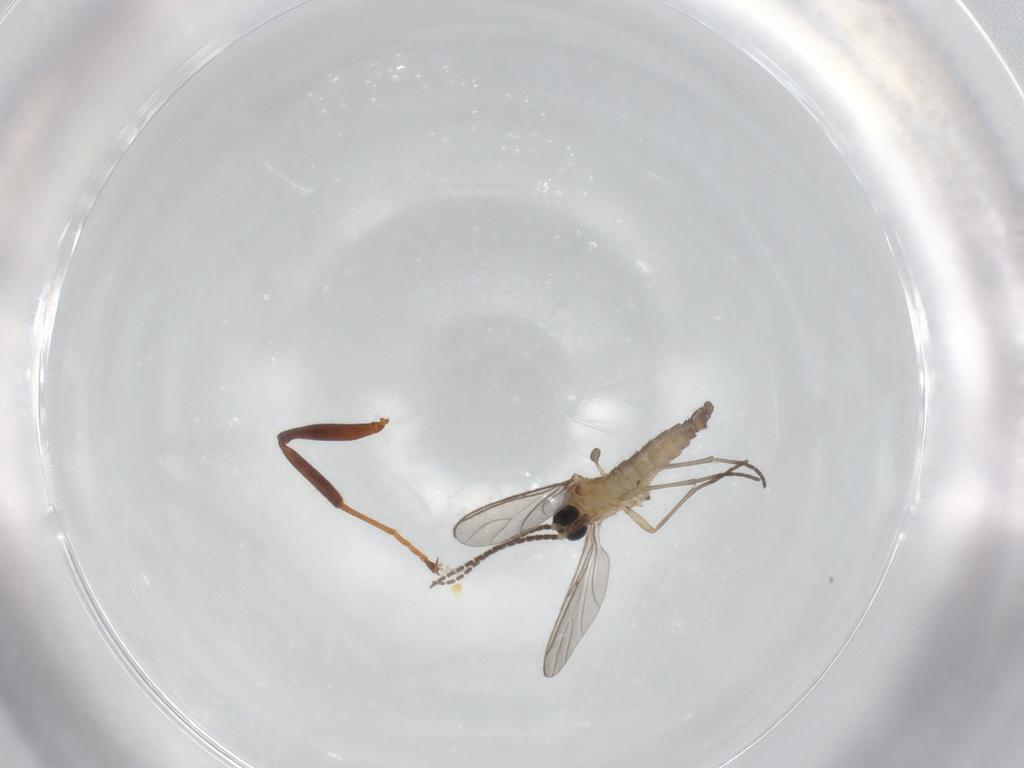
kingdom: Animalia
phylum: Arthropoda
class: Insecta
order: Diptera
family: Sciaridae
